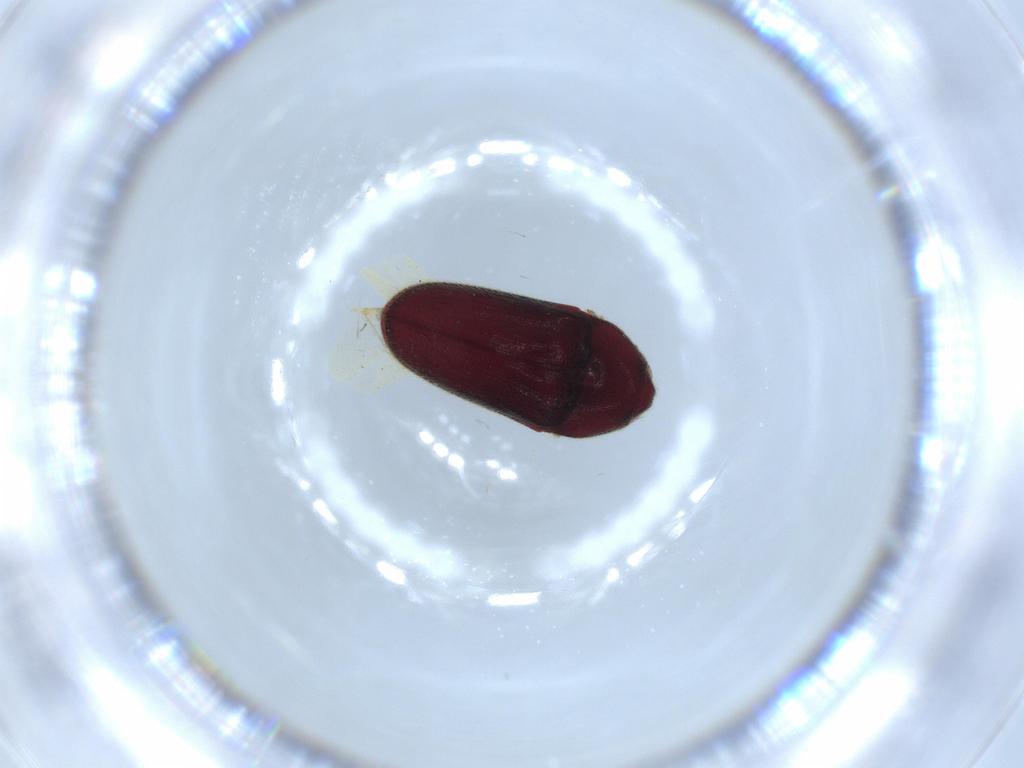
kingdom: Animalia
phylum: Arthropoda
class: Insecta
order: Coleoptera
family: Throscidae
